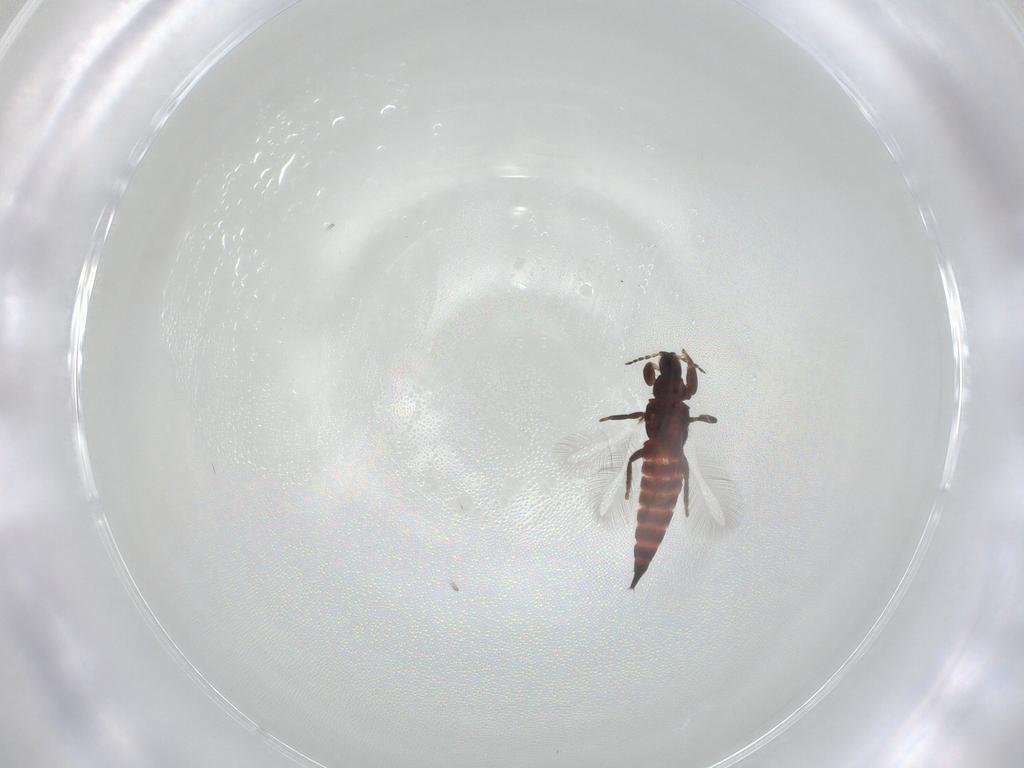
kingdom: Animalia
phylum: Arthropoda
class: Insecta
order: Thysanoptera
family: Phlaeothripidae
